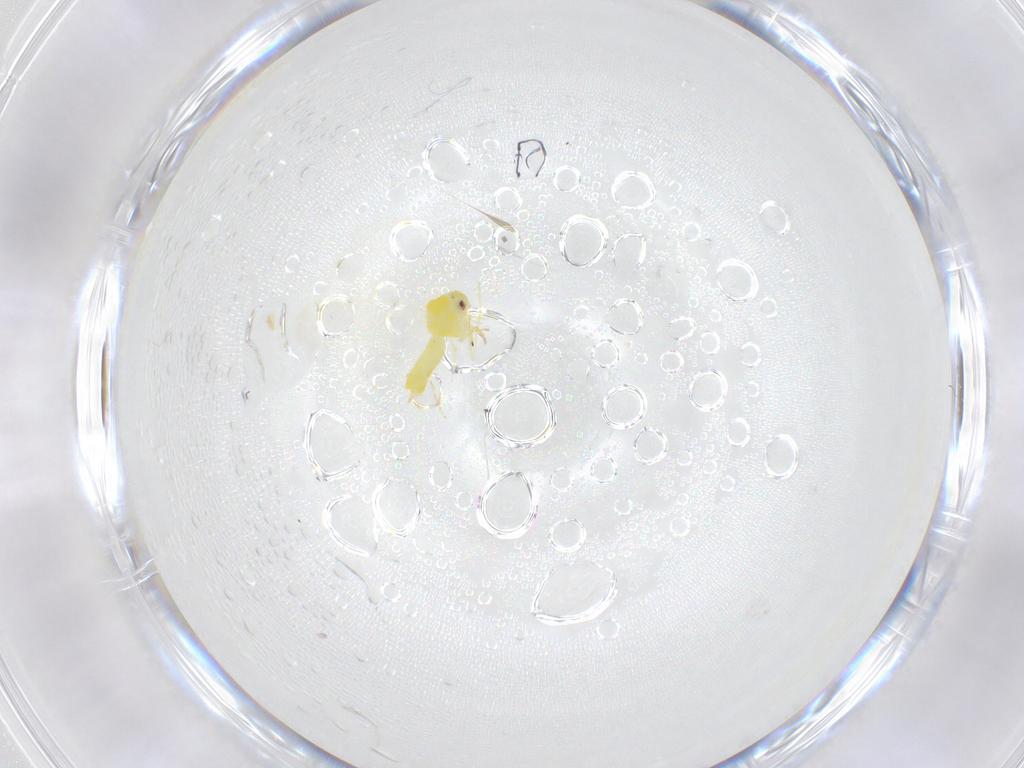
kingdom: Animalia
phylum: Arthropoda
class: Insecta
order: Hemiptera
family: Aleyrodidae
